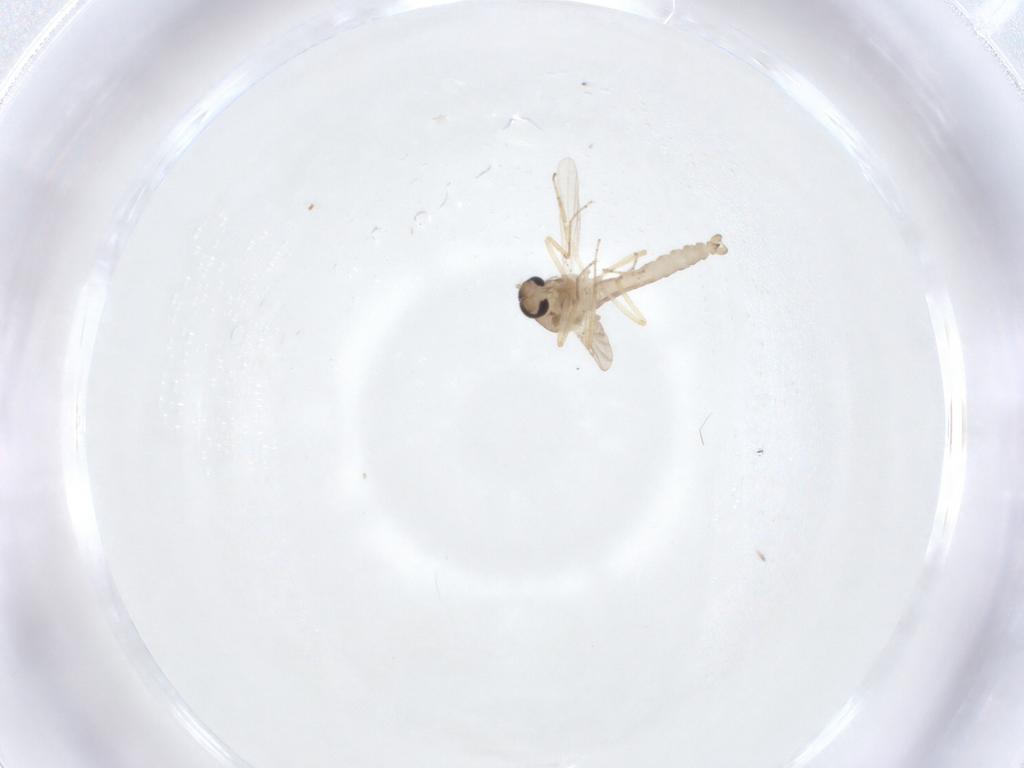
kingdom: Animalia
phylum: Arthropoda
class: Insecta
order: Diptera
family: Ceratopogonidae
